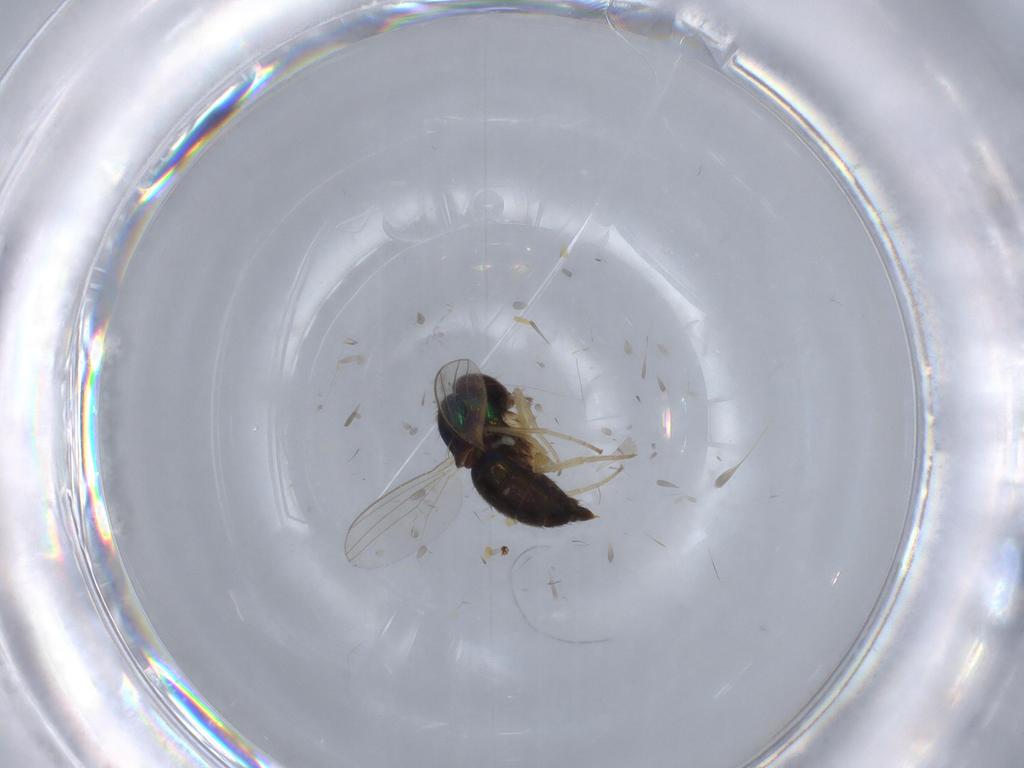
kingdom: Animalia
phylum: Arthropoda
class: Insecta
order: Diptera
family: Dolichopodidae
